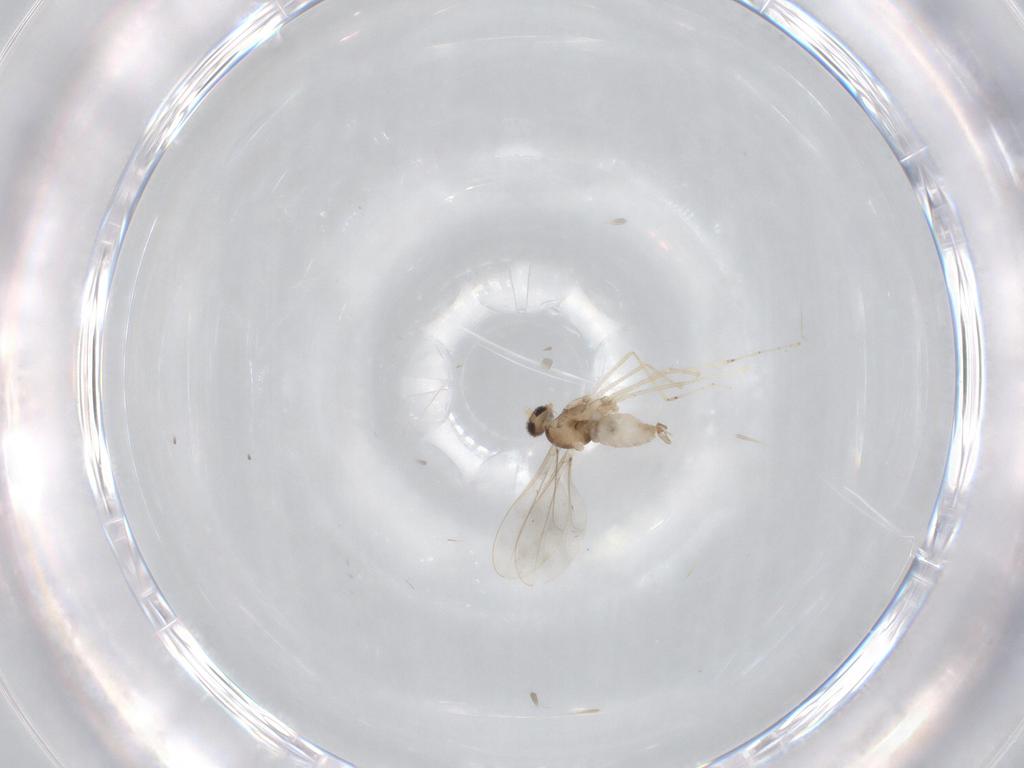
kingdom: Animalia
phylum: Arthropoda
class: Insecta
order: Diptera
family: Cecidomyiidae
